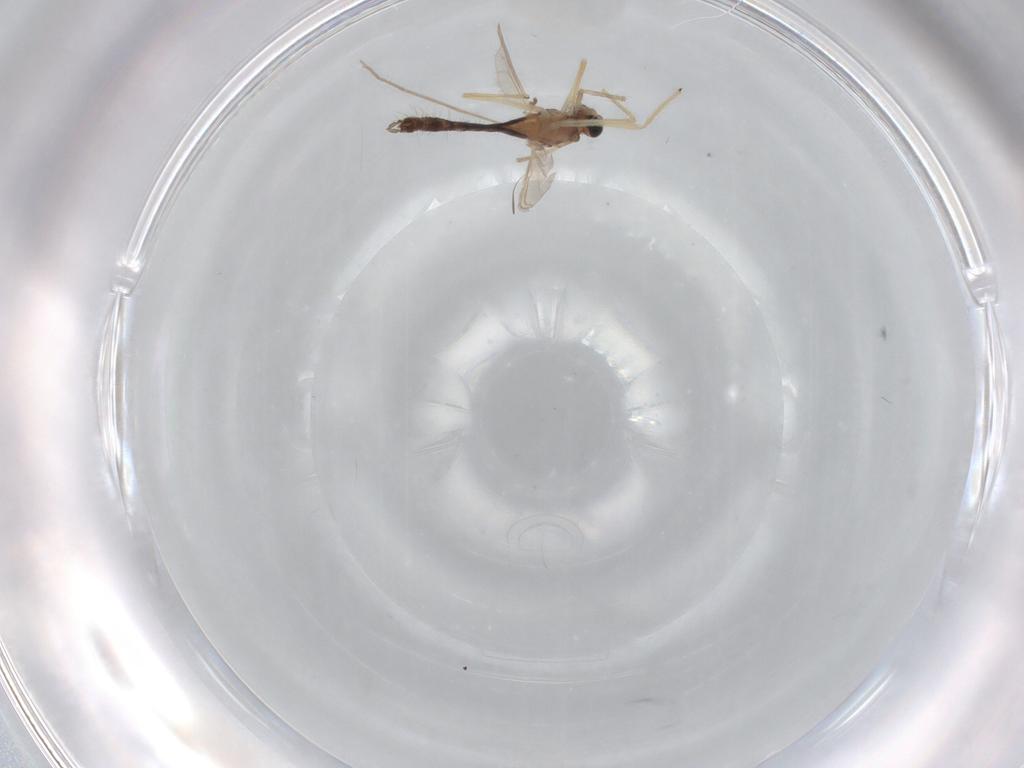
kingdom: Animalia
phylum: Arthropoda
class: Insecta
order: Diptera
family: Chironomidae
